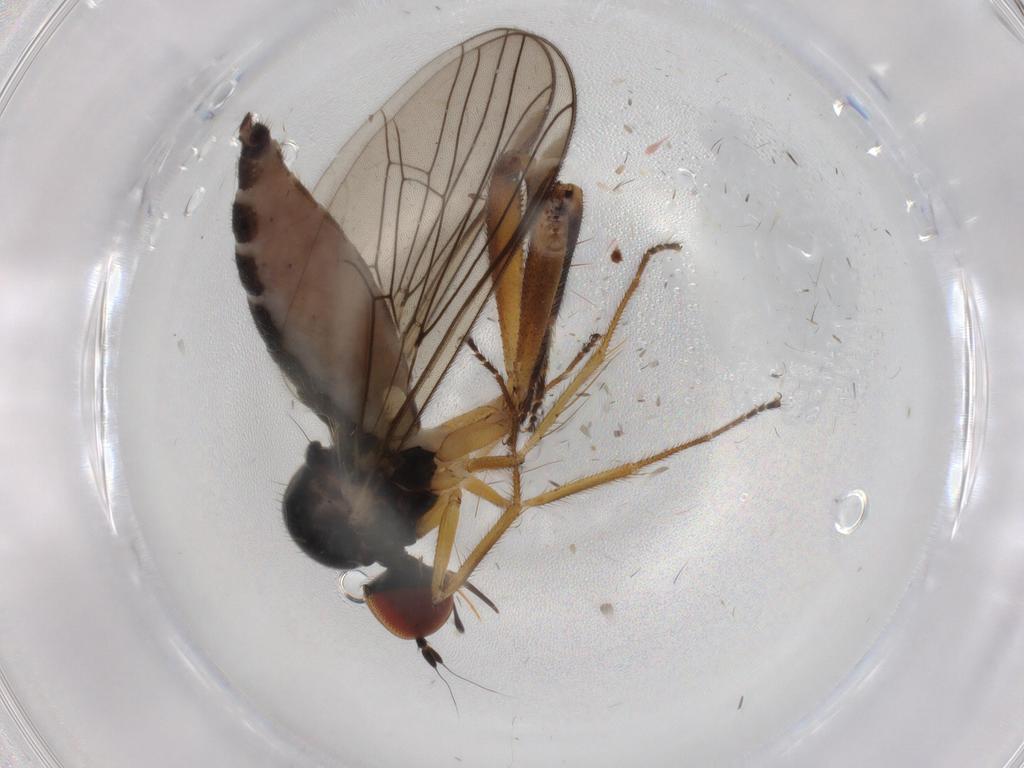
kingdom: Animalia
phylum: Arthropoda
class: Insecta
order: Diptera
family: Hybotidae
